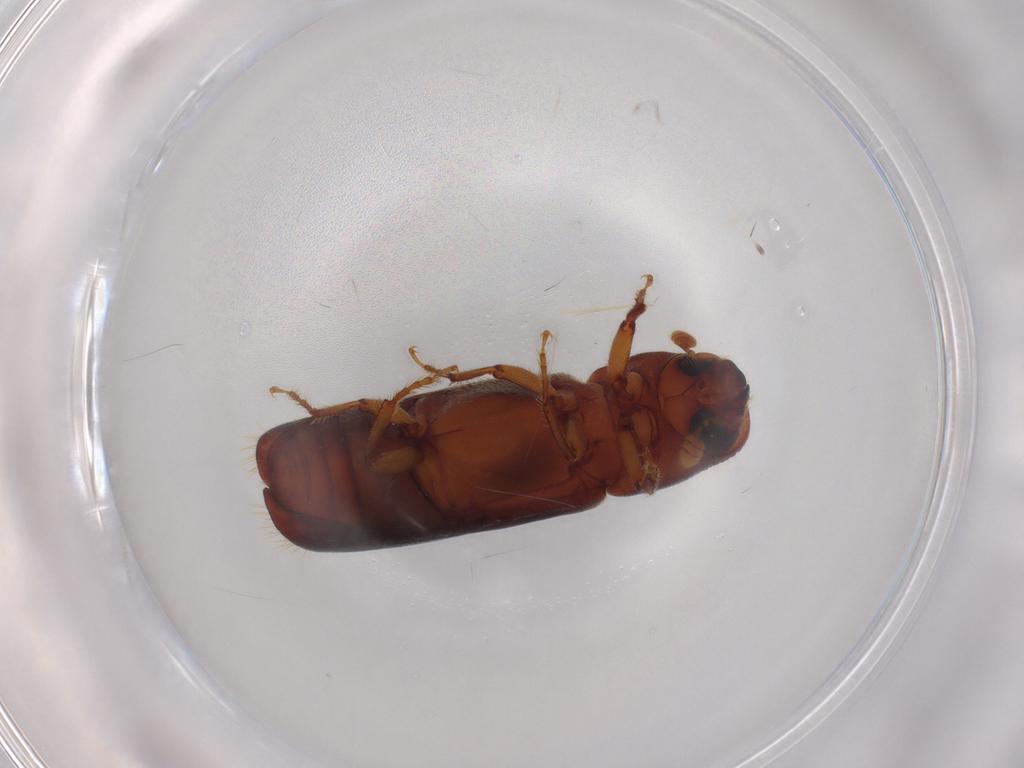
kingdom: Animalia
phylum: Arthropoda
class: Insecta
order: Coleoptera
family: Curculionidae
